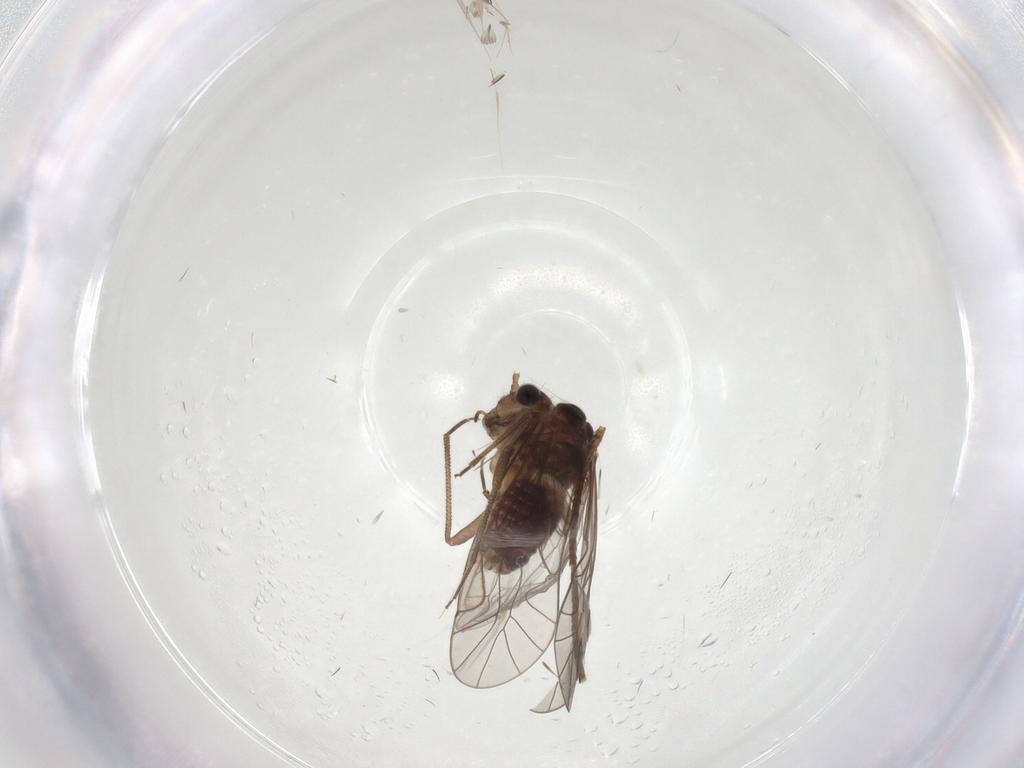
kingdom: Animalia
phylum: Arthropoda
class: Insecta
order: Psocodea
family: Lachesillidae
